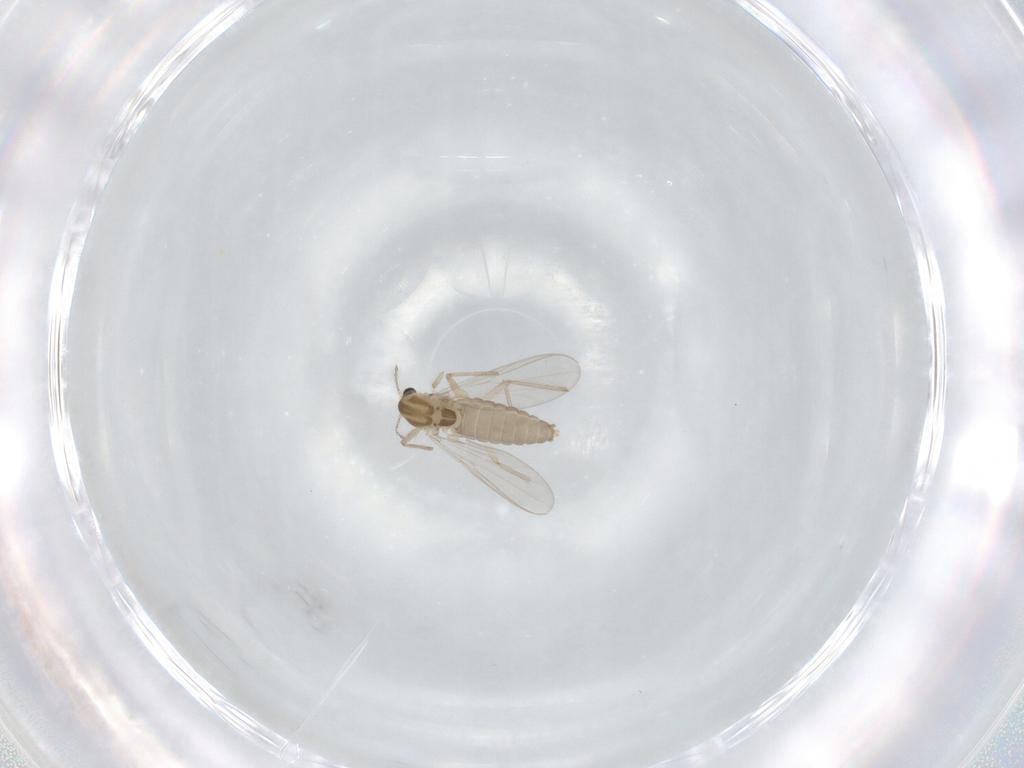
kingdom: Animalia
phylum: Arthropoda
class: Insecta
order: Diptera
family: Chironomidae
